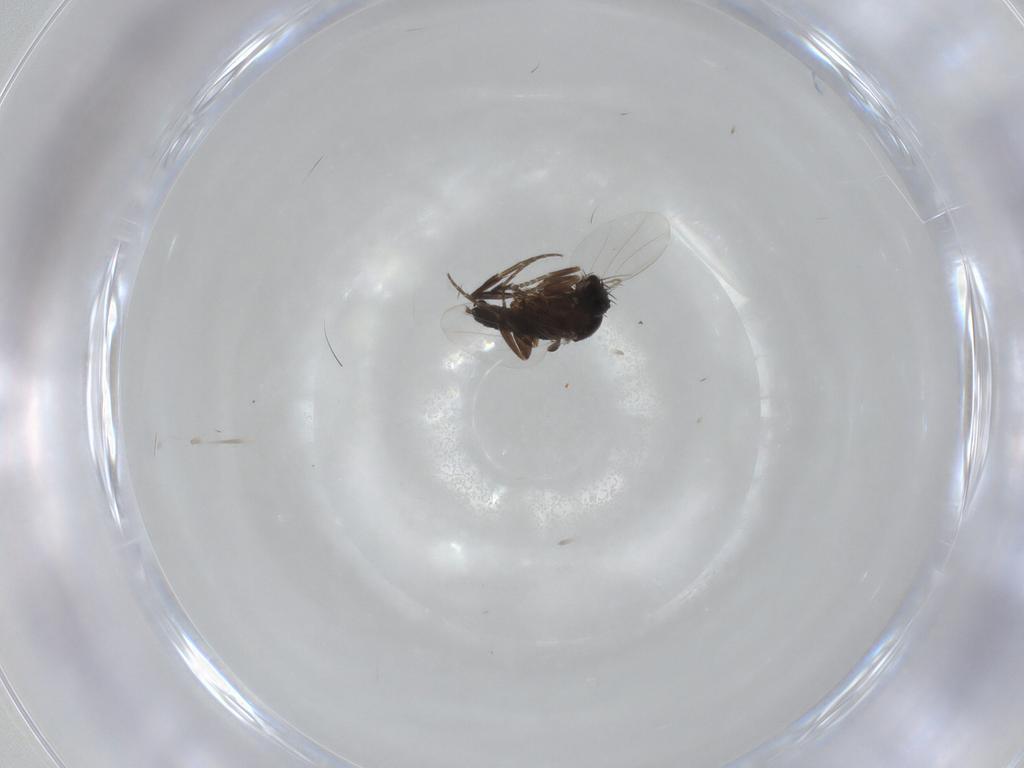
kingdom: Animalia
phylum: Arthropoda
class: Insecta
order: Diptera
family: Phoridae
